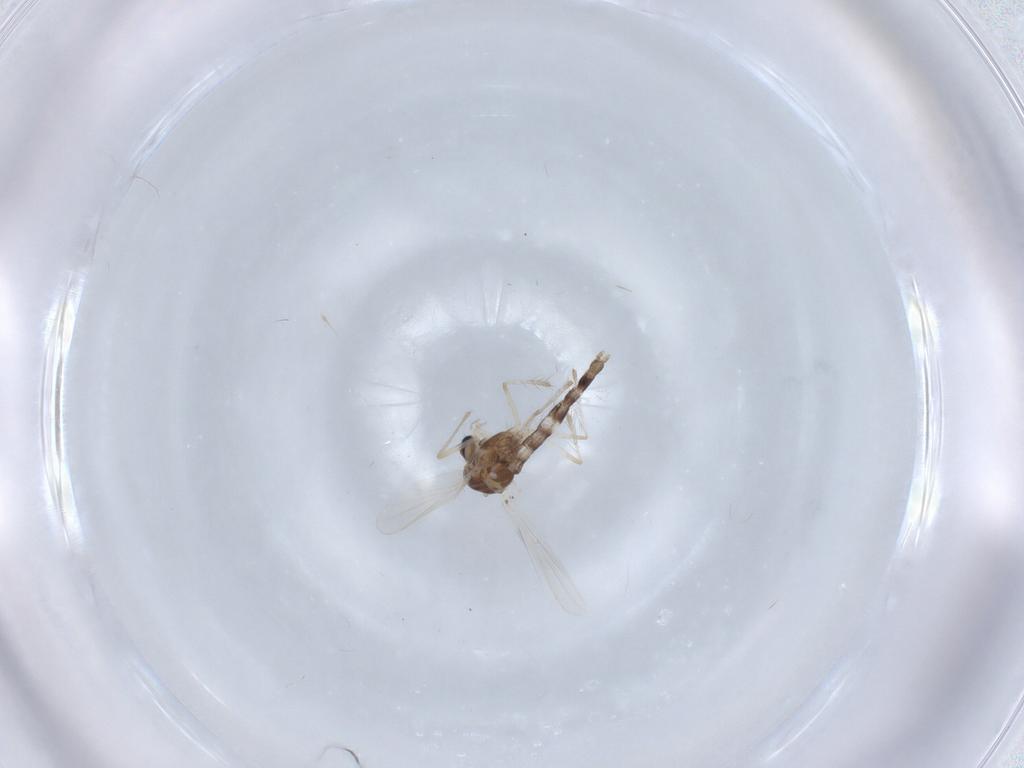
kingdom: Animalia
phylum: Arthropoda
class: Insecta
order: Diptera
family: Chironomidae
